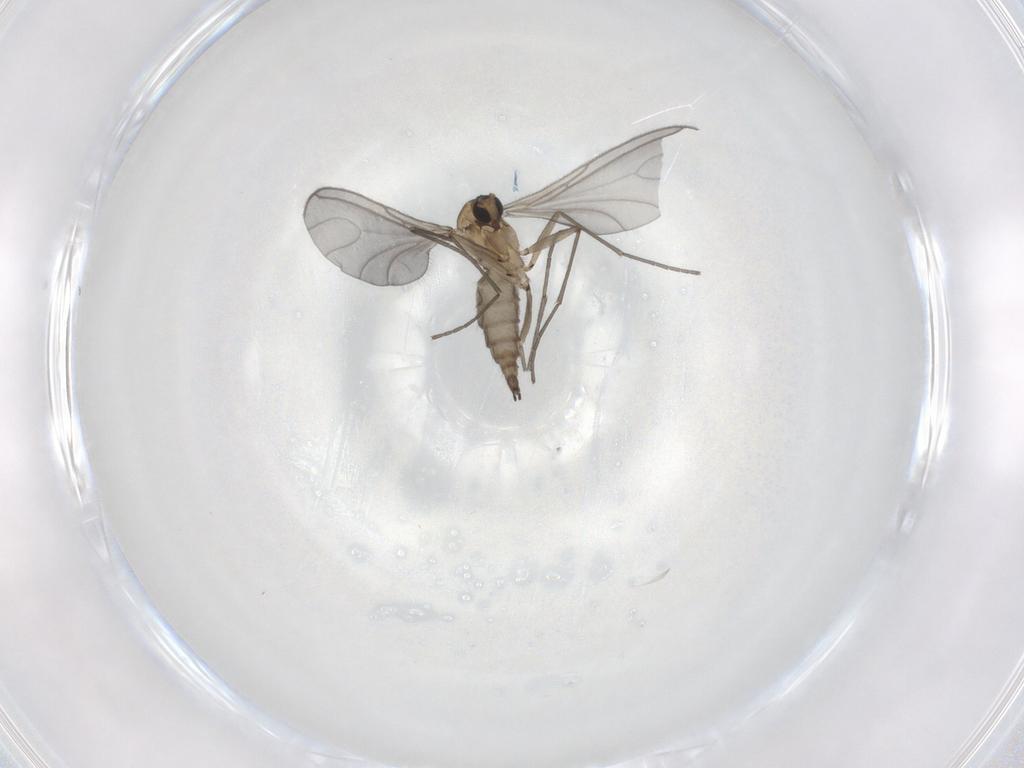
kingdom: Animalia
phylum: Arthropoda
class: Insecta
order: Diptera
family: Sciaridae
